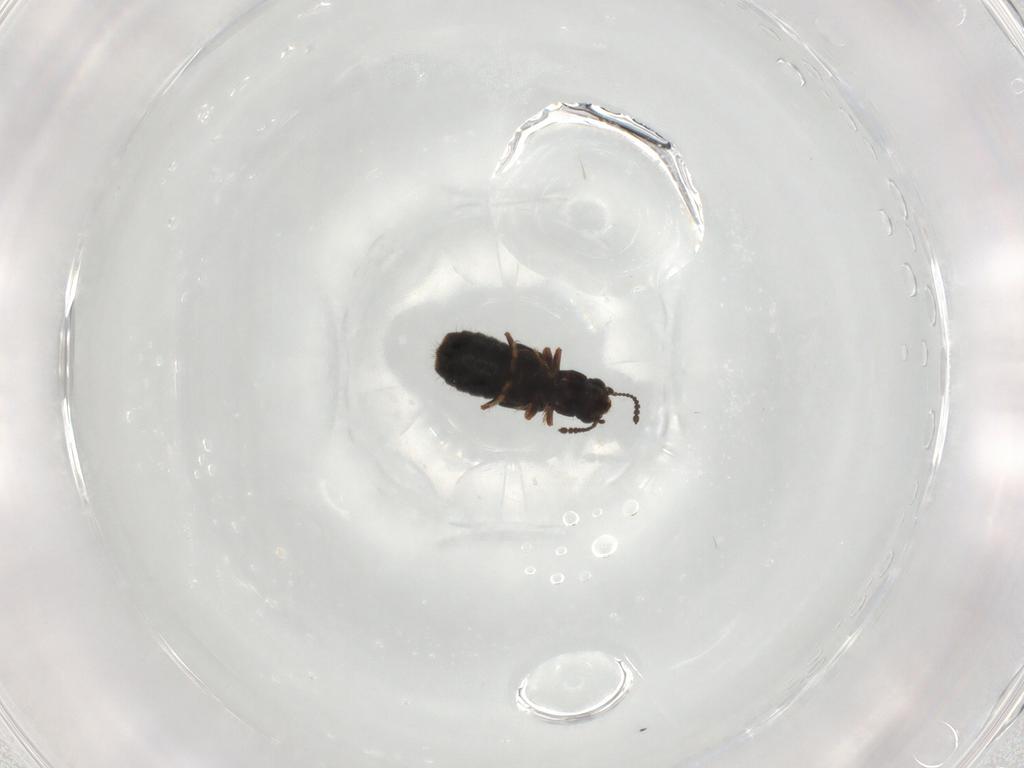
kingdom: Animalia
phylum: Arthropoda
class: Insecta
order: Coleoptera
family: Staphylinidae
